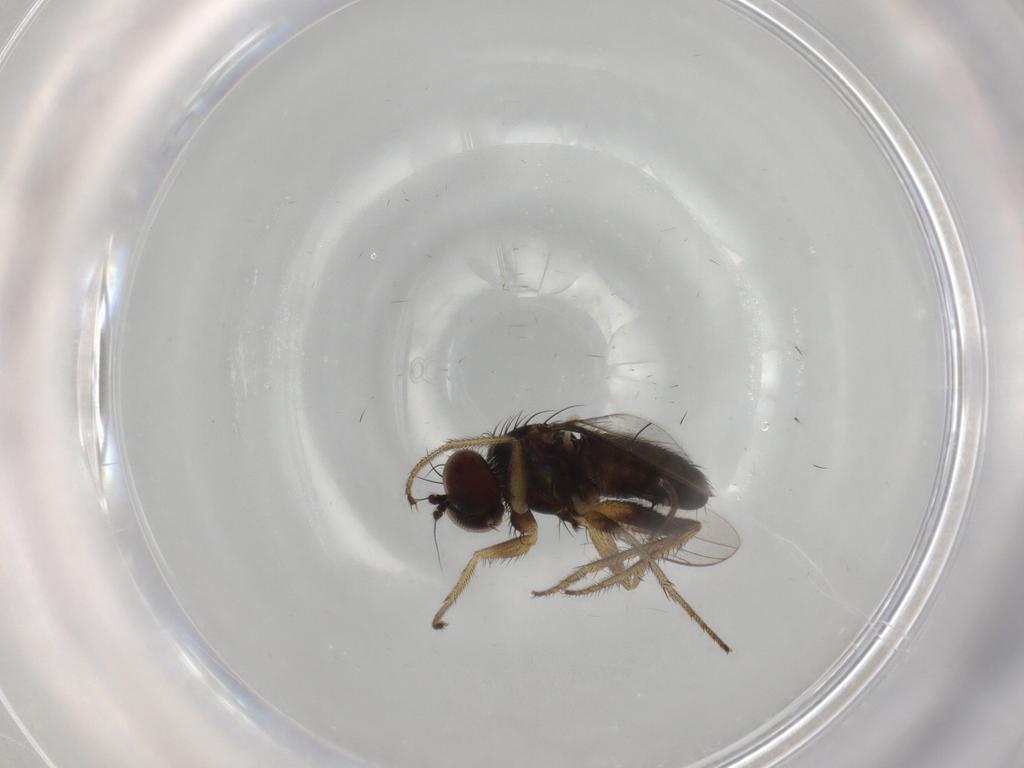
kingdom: Animalia
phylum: Arthropoda
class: Insecta
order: Diptera
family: Dolichopodidae
